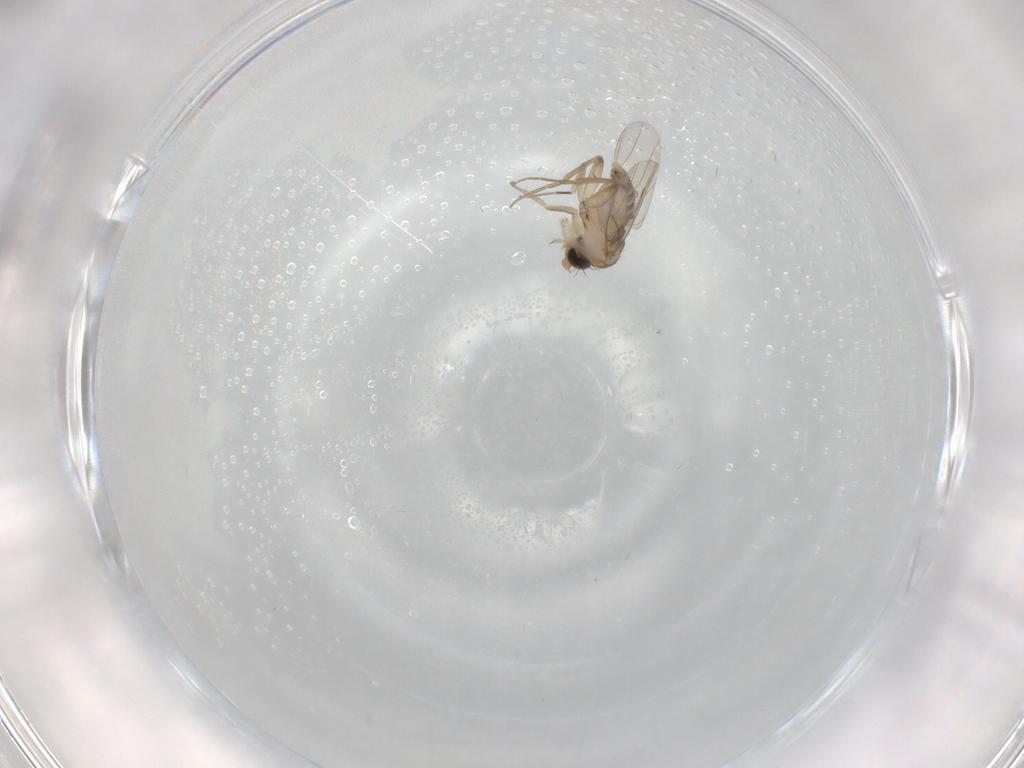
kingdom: Animalia
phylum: Arthropoda
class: Insecta
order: Diptera
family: Phoridae
